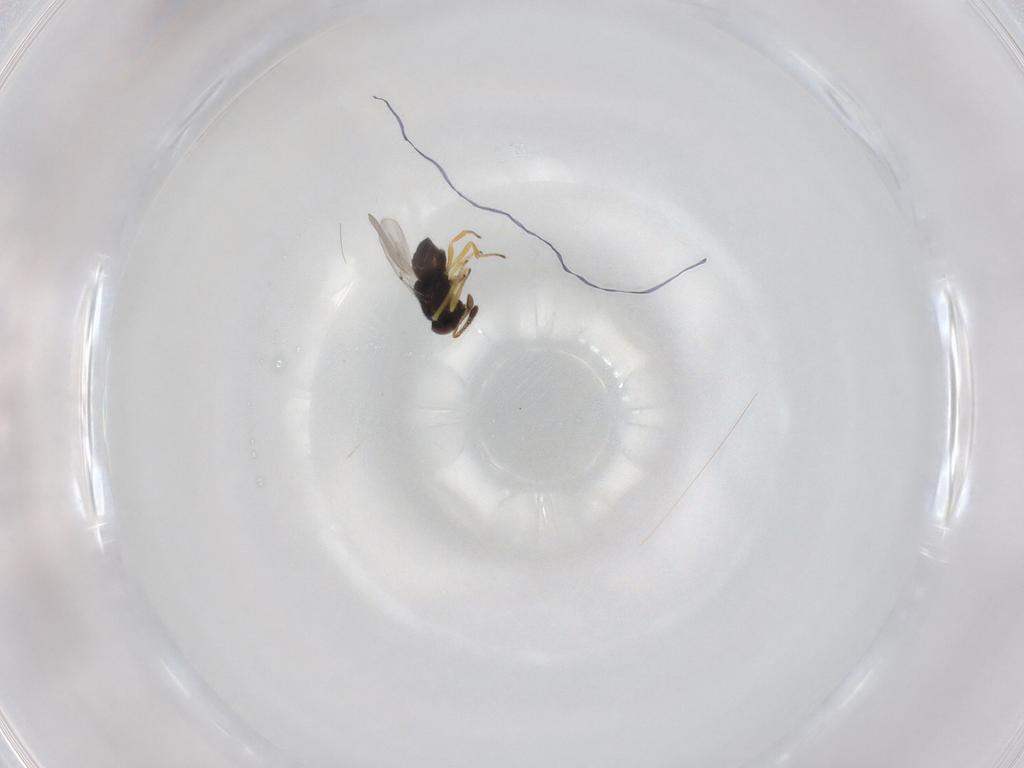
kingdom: Animalia
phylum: Arthropoda
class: Insecta
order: Hymenoptera
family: Encyrtidae
